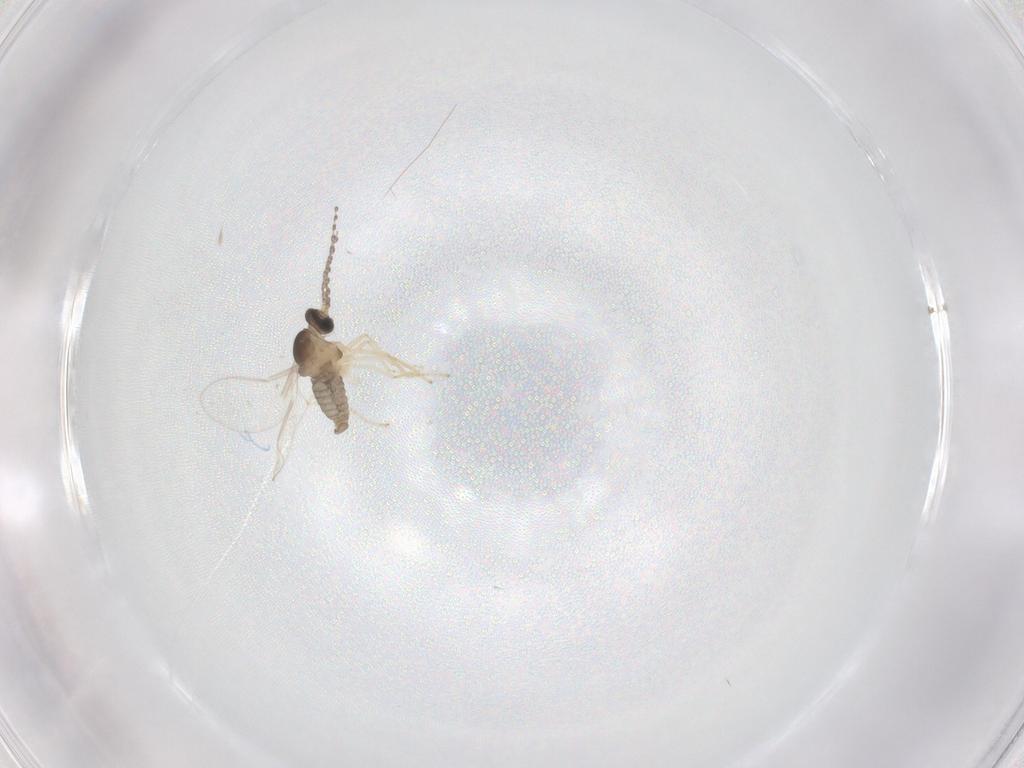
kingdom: Animalia
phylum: Arthropoda
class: Insecta
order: Diptera
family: Cecidomyiidae
